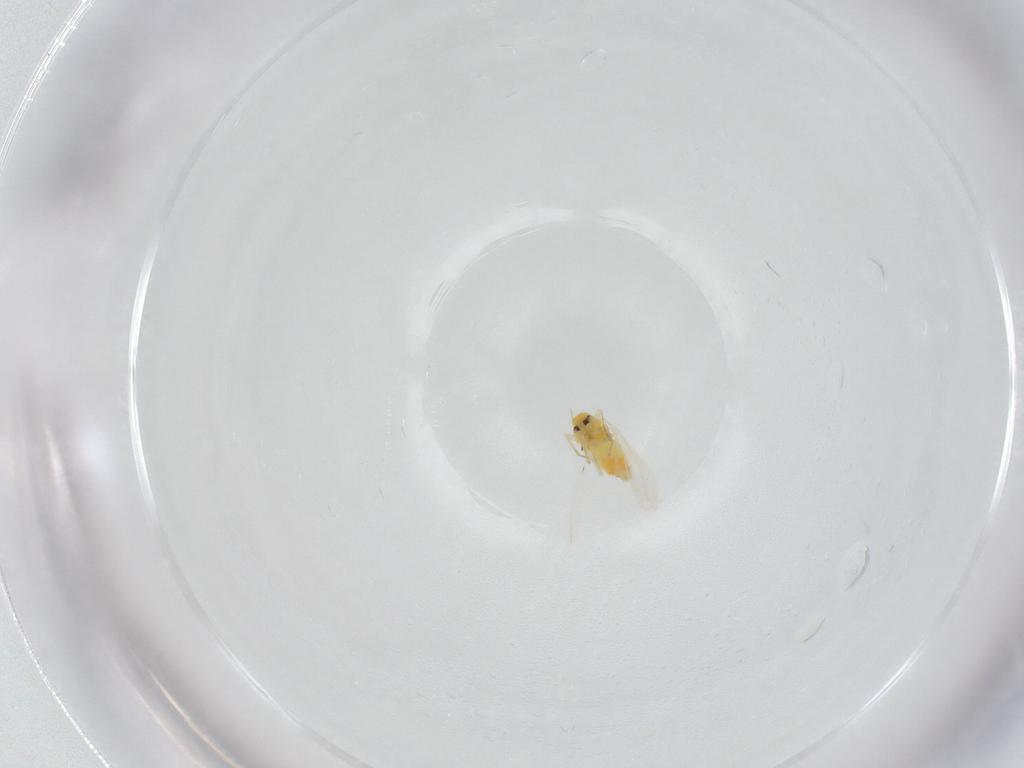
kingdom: Animalia
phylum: Arthropoda
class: Insecta
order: Hemiptera
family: Aleyrodidae
